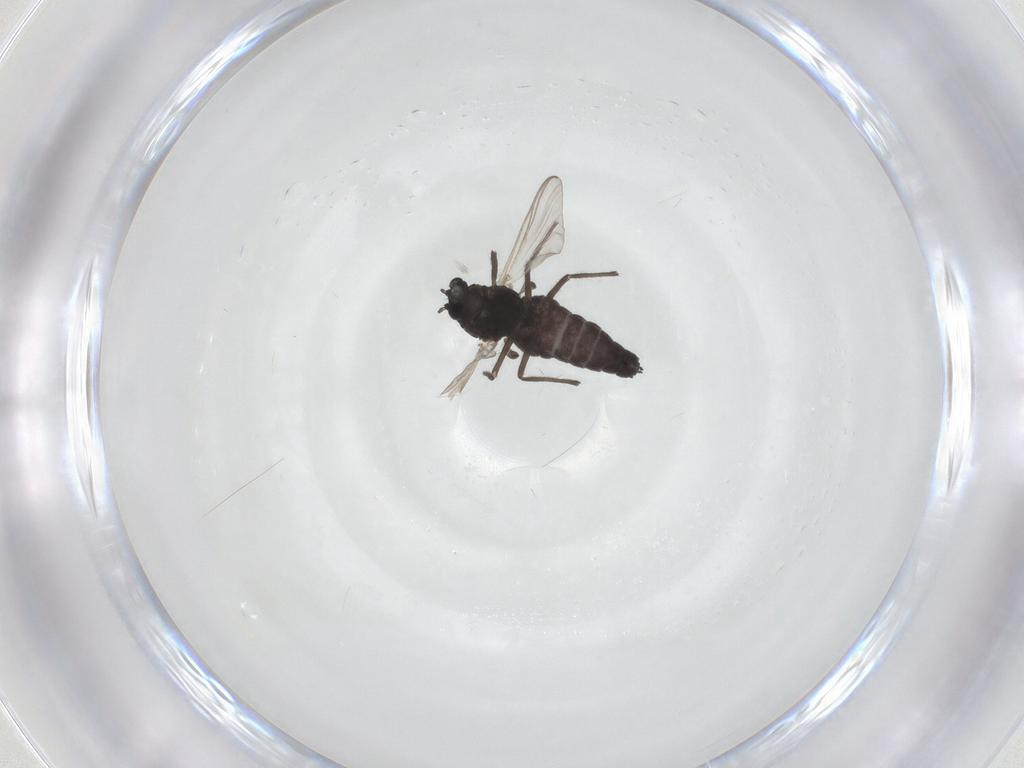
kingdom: Animalia
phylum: Arthropoda
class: Insecta
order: Diptera
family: Chironomidae
